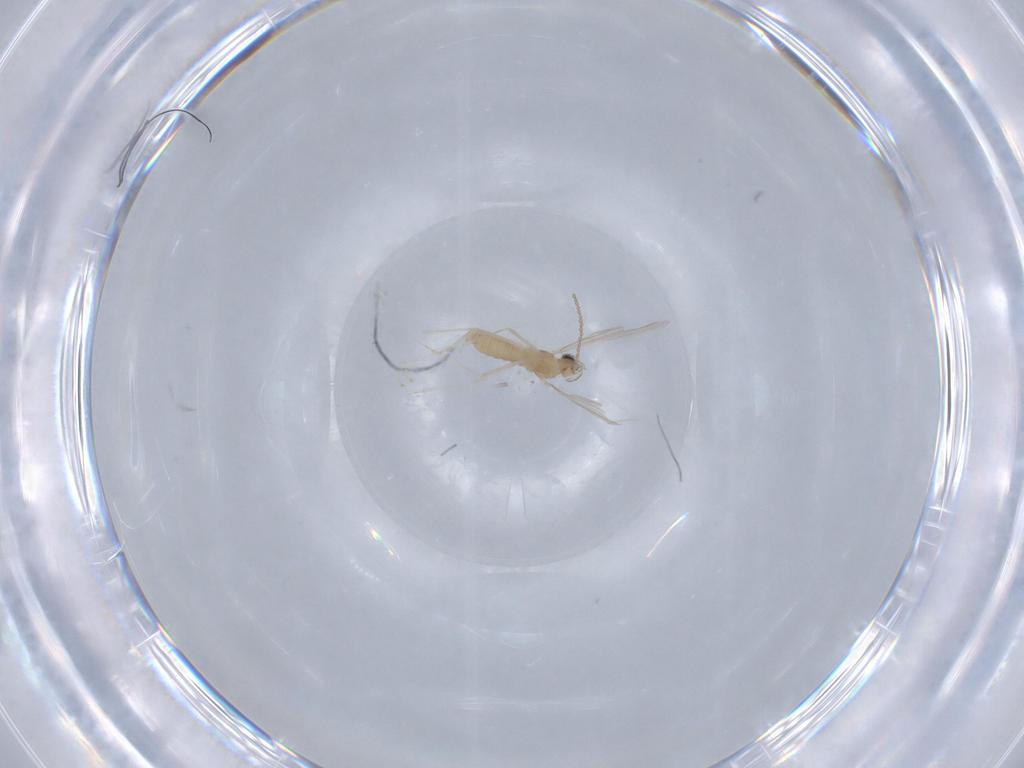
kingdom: Animalia
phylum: Arthropoda
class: Insecta
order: Diptera
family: Cecidomyiidae
